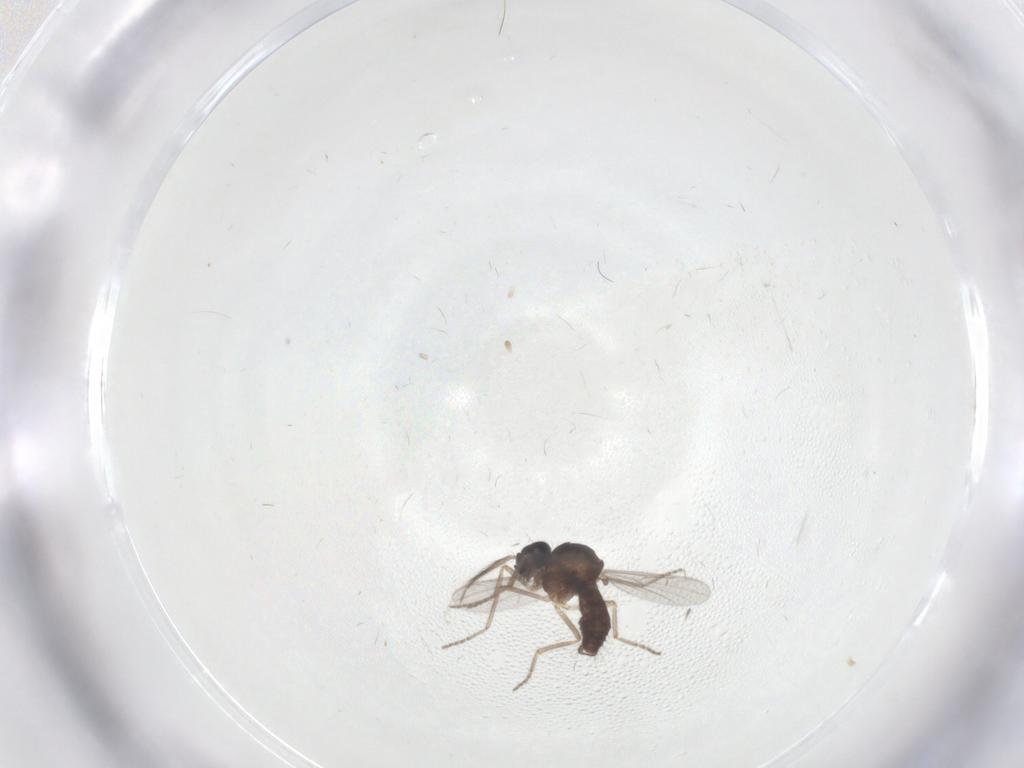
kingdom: Animalia
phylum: Arthropoda
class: Insecta
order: Diptera
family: Ceratopogonidae
